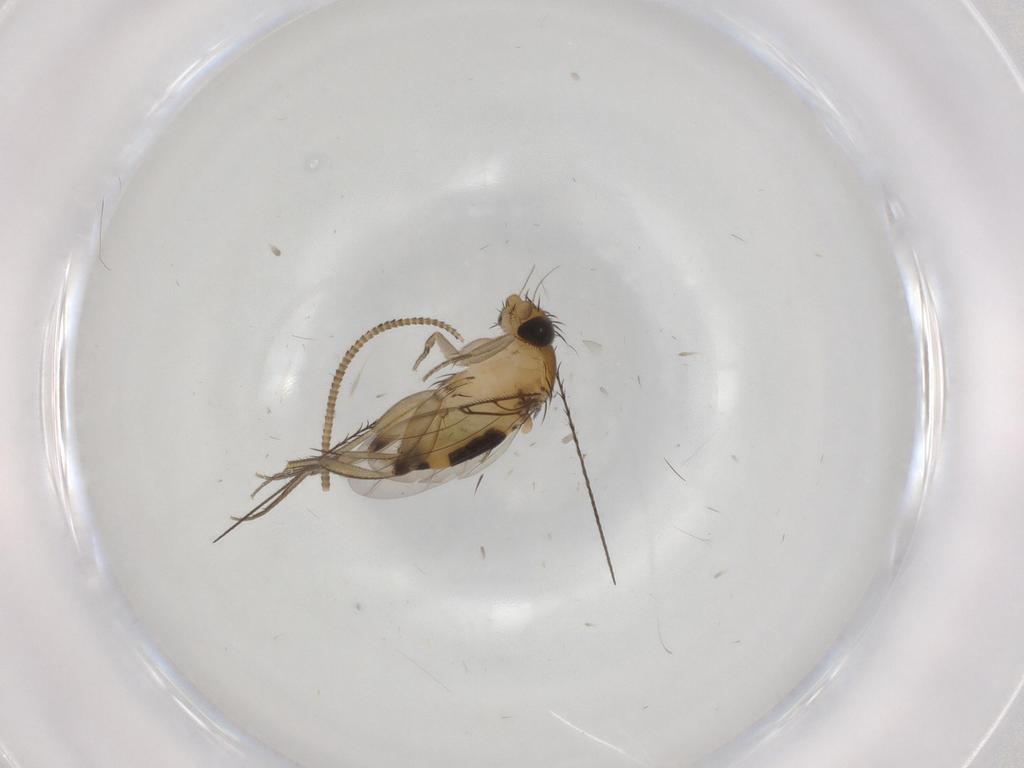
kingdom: Animalia
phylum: Arthropoda
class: Insecta
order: Diptera
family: Phoridae
